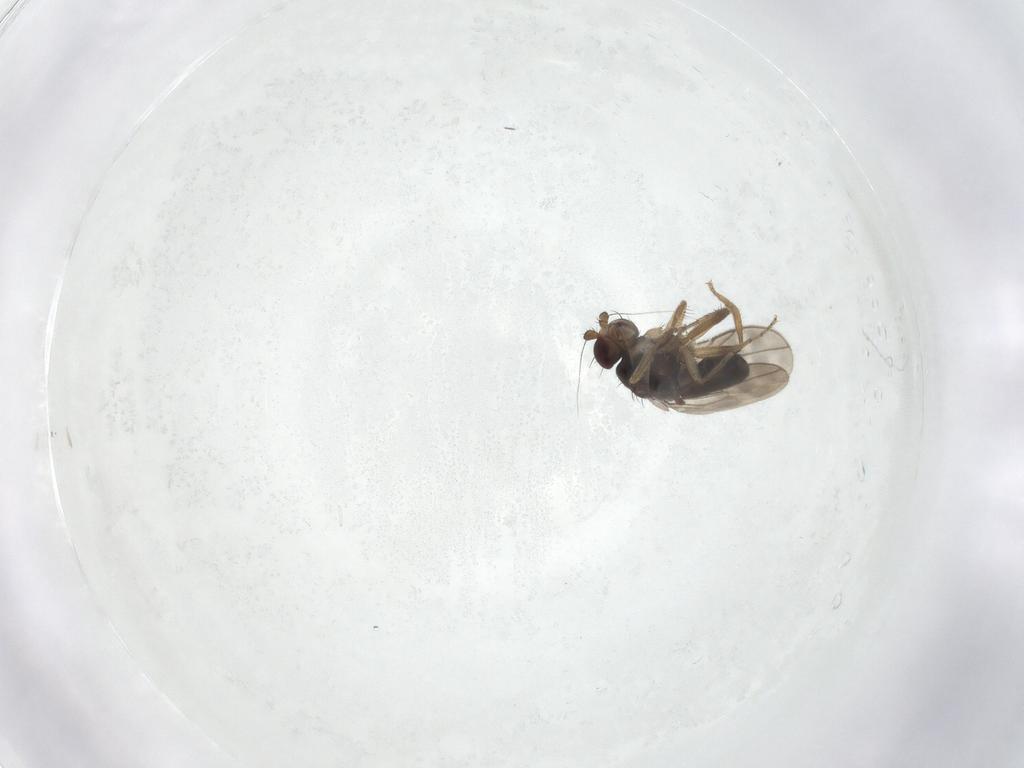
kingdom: Animalia
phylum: Arthropoda
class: Insecta
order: Diptera
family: Sphaeroceridae
